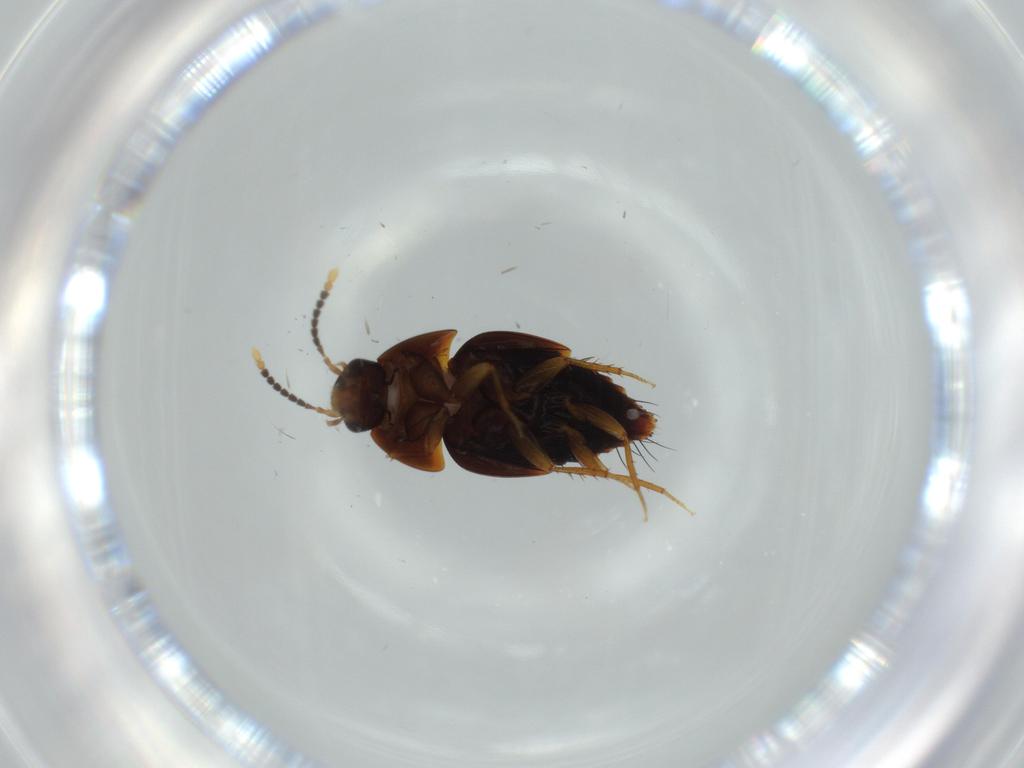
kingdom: Animalia
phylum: Arthropoda
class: Insecta
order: Coleoptera
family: Staphylinidae
